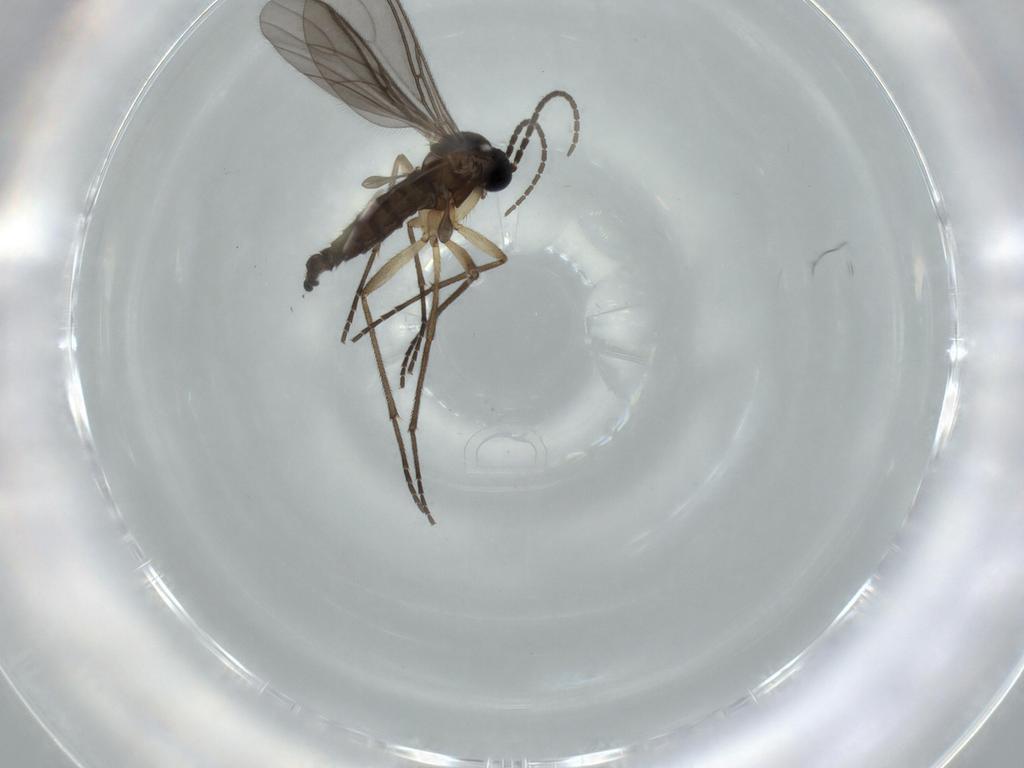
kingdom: Animalia
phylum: Arthropoda
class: Insecta
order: Diptera
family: Sciaridae
